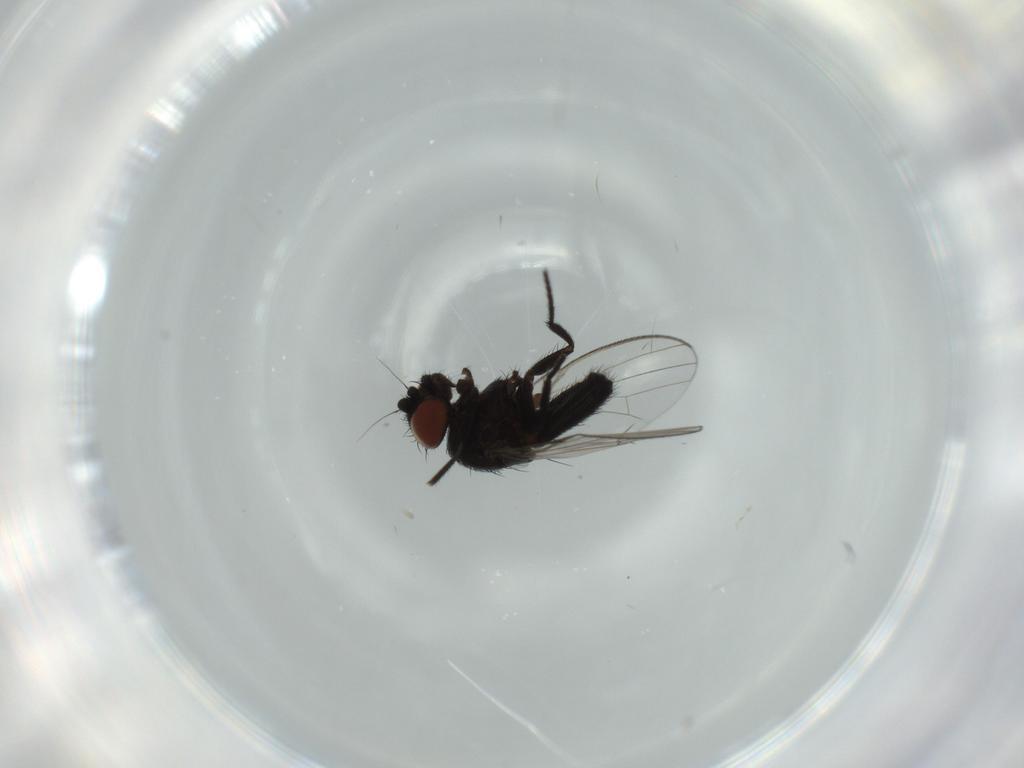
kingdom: Animalia
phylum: Arthropoda
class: Insecta
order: Diptera
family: Milichiidae
